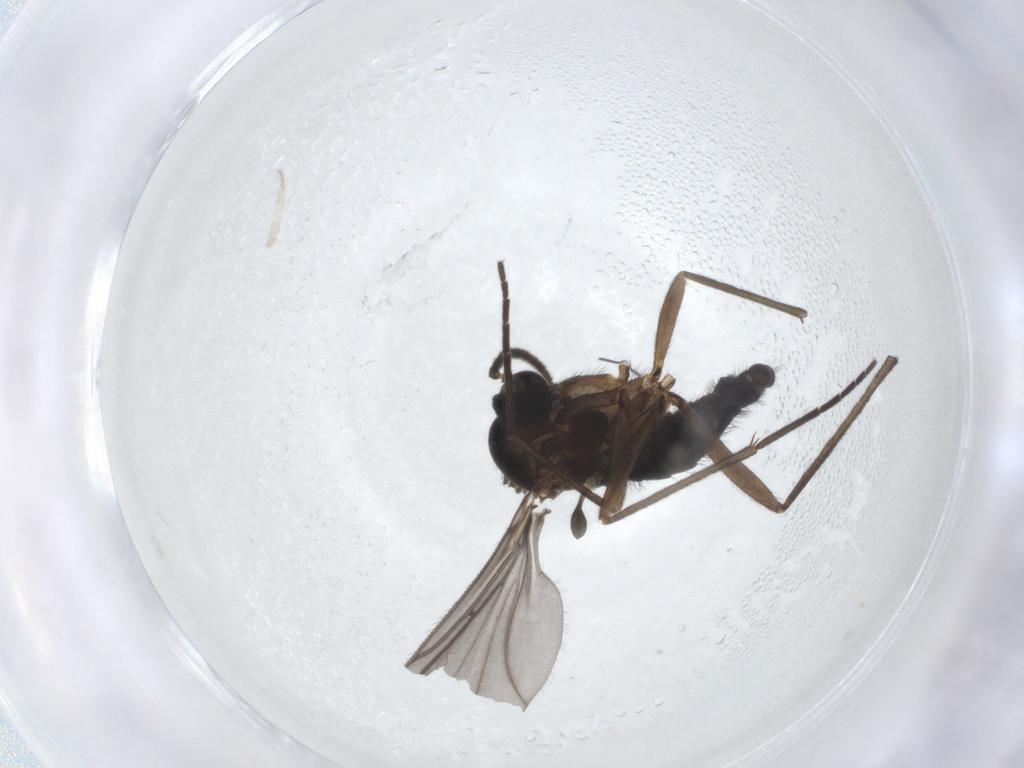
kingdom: Animalia
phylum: Arthropoda
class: Insecta
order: Diptera
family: Sciaridae
